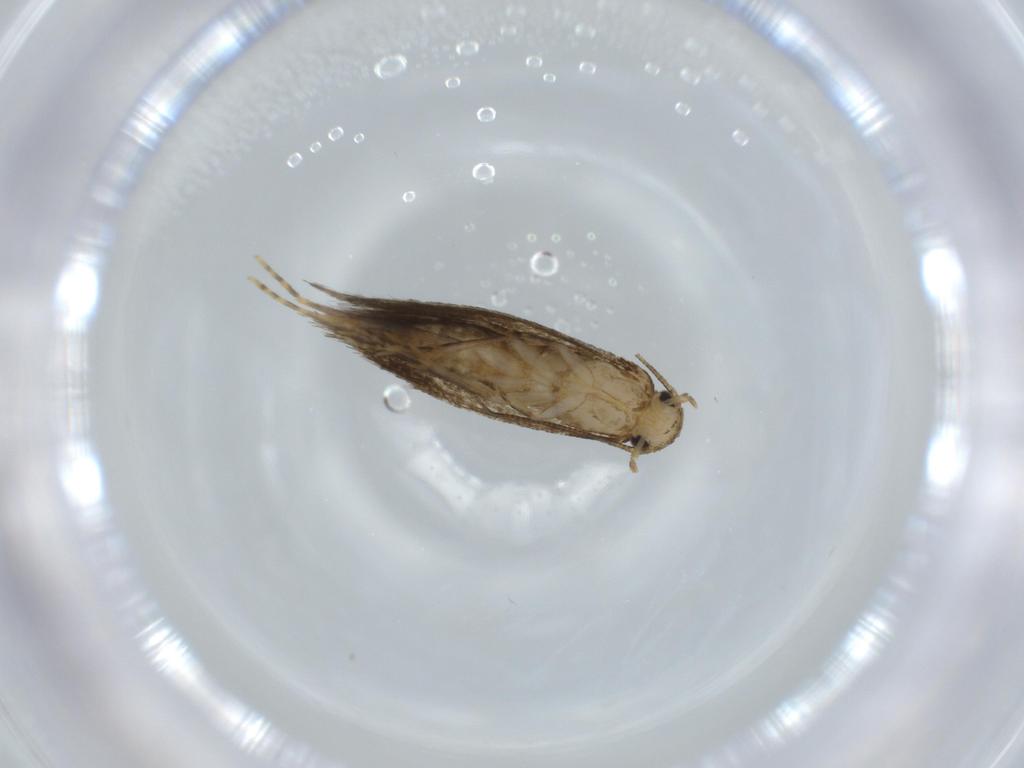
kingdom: Animalia
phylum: Arthropoda
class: Insecta
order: Lepidoptera
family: Tineidae
